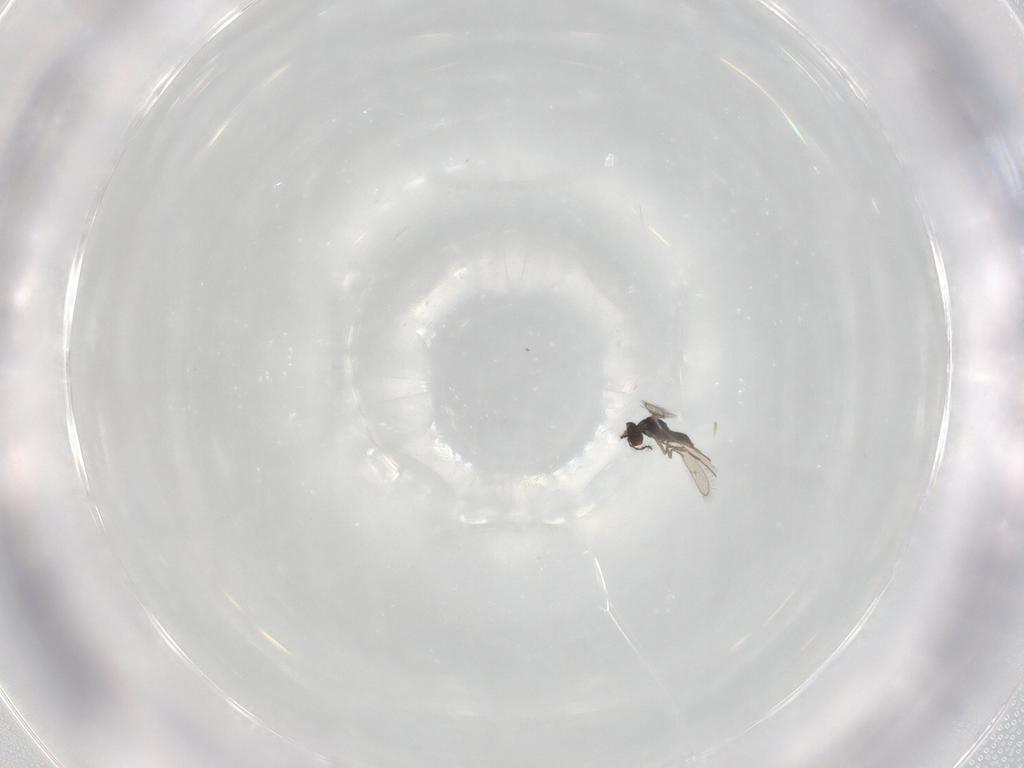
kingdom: Animalia
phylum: Arthropoda
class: Insecta
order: Hymenoptera
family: Pteromalidae
